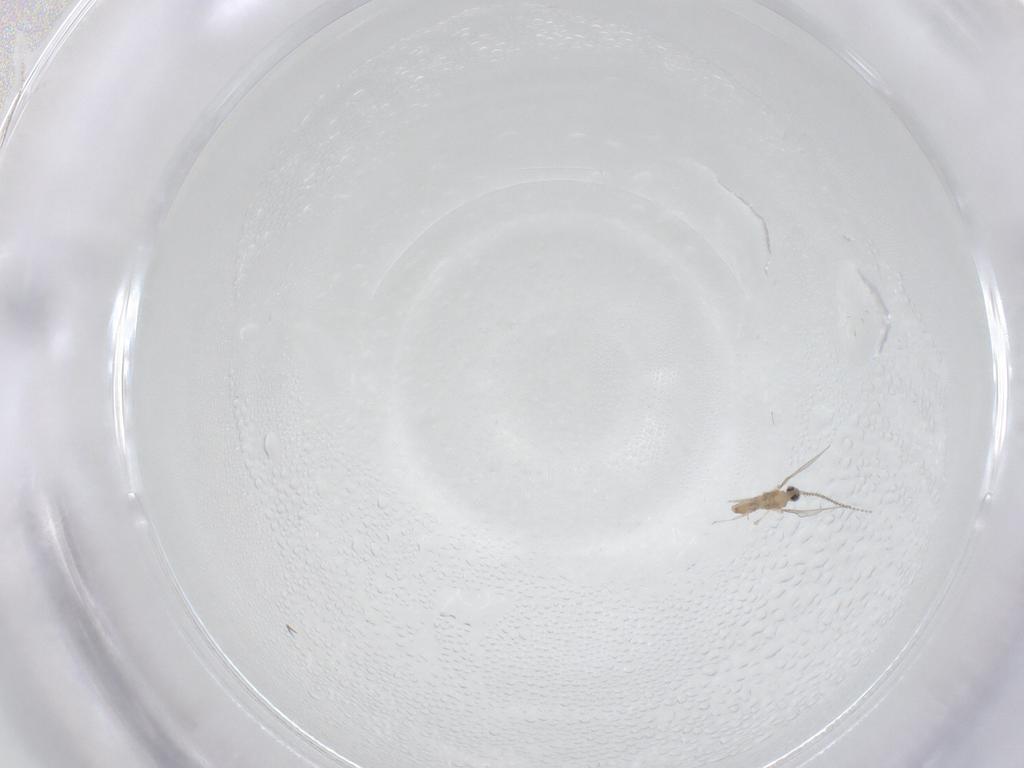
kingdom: Animalia
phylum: Arthropoda
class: Insecta
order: Diptera
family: Cecidomyiidae
